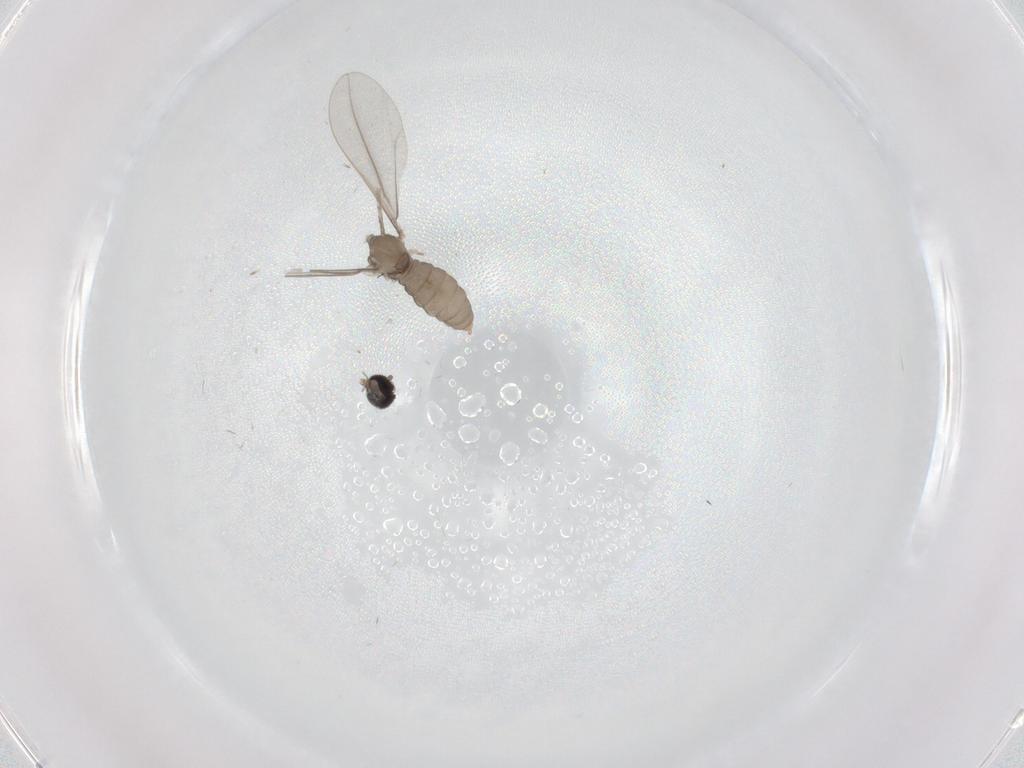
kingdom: Animalia
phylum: Arthropoda
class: Insecta
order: Diptera
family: Cecidomyiidae
